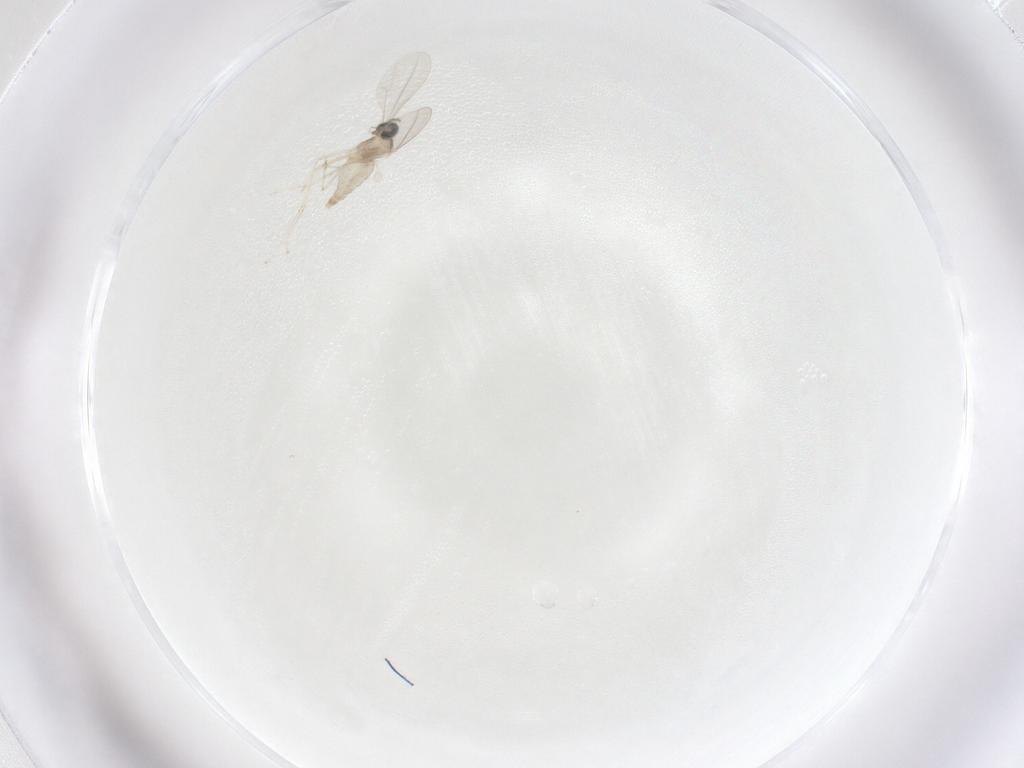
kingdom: Animalia
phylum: Arthropoda
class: Insecta
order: Diptera
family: Cecidomyiidae
